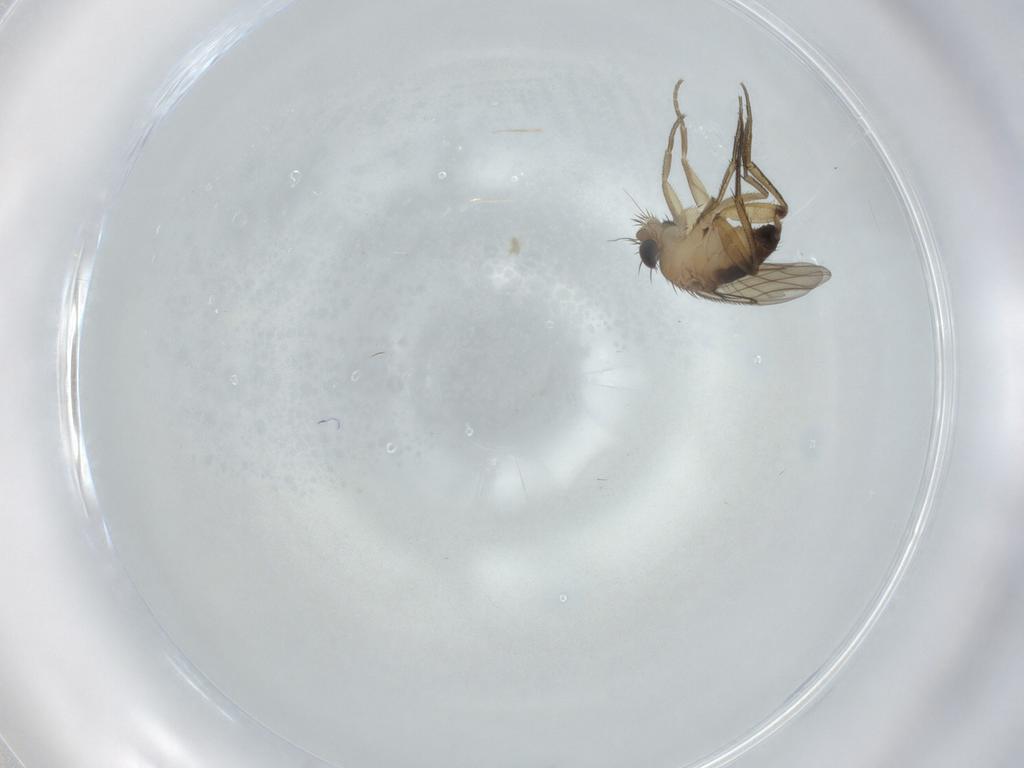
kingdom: Animalia
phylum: Arthropoda
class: Insecta
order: Diptera
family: Phoridae
